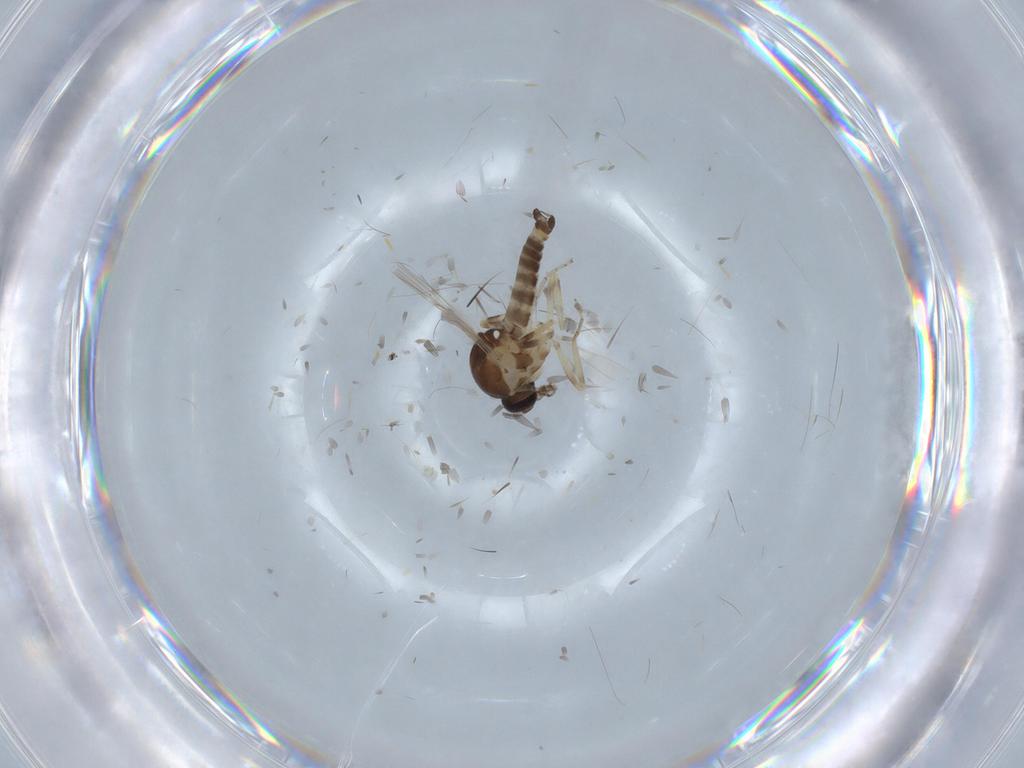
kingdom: Animalia
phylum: Arthropoda
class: Insecta
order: Diptera
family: Ceratopogonidae
